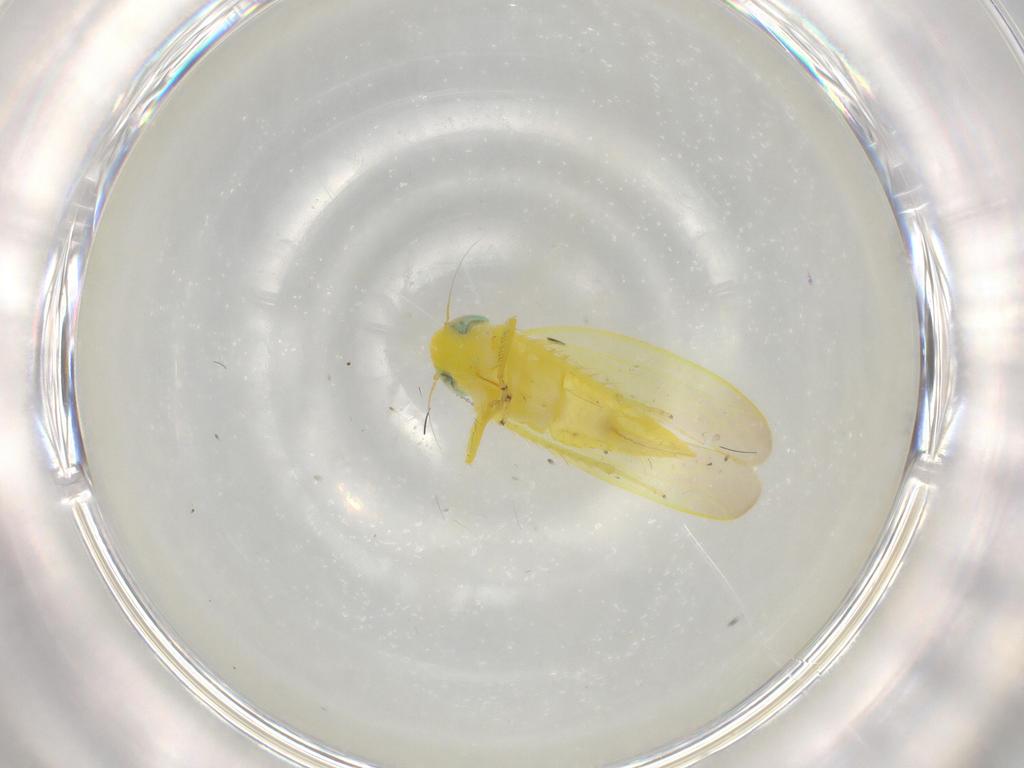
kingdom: Animalia
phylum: Arthropoda
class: Insecta
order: Hemiptera
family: Cicadellidae
